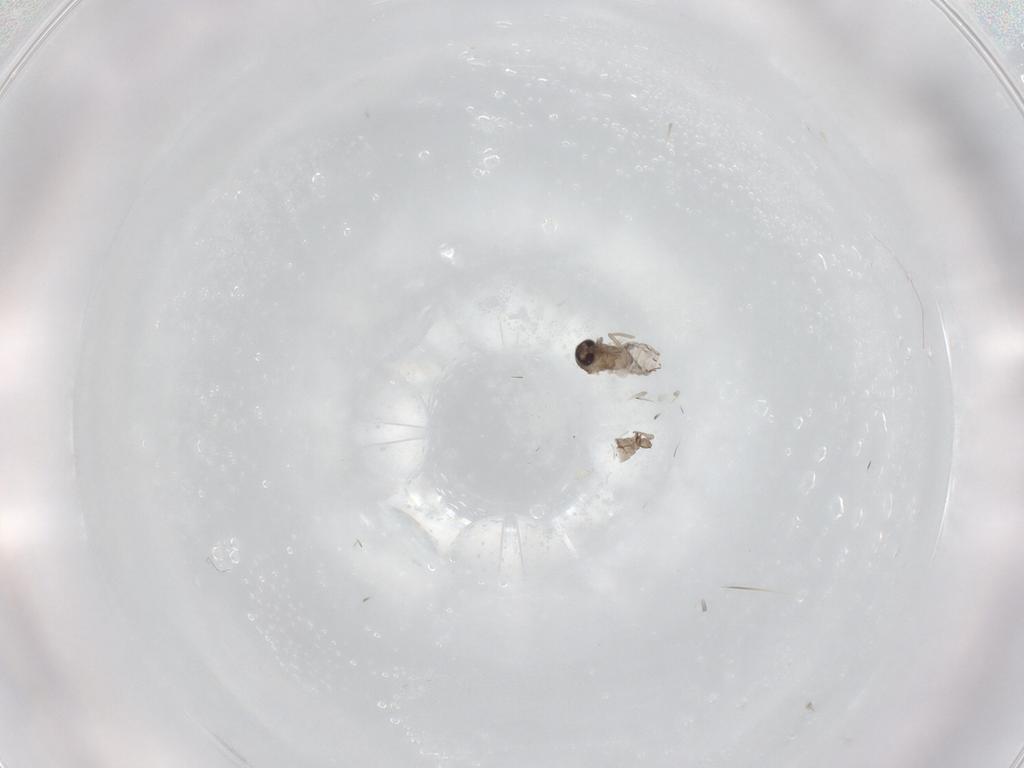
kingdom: Animalia
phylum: Arthropoda
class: Insecta
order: Diptera
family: Psychodidae
